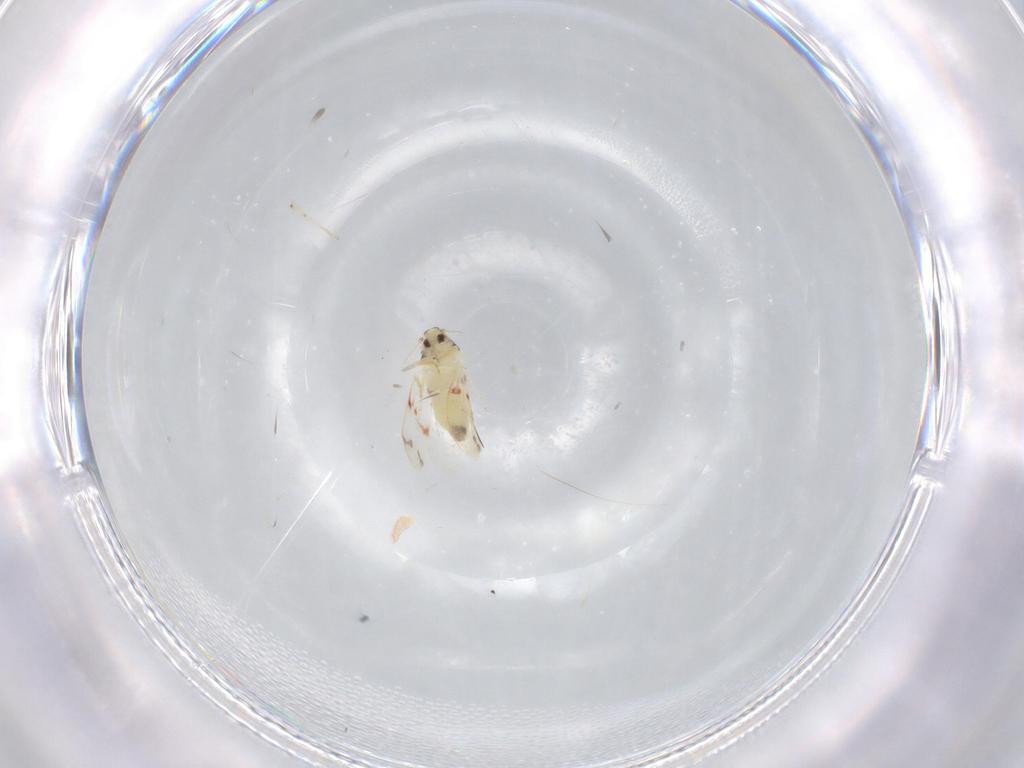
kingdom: Animalia
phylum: Arthropoda
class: Insecta
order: Hemiptera
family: Aleyrodidae
